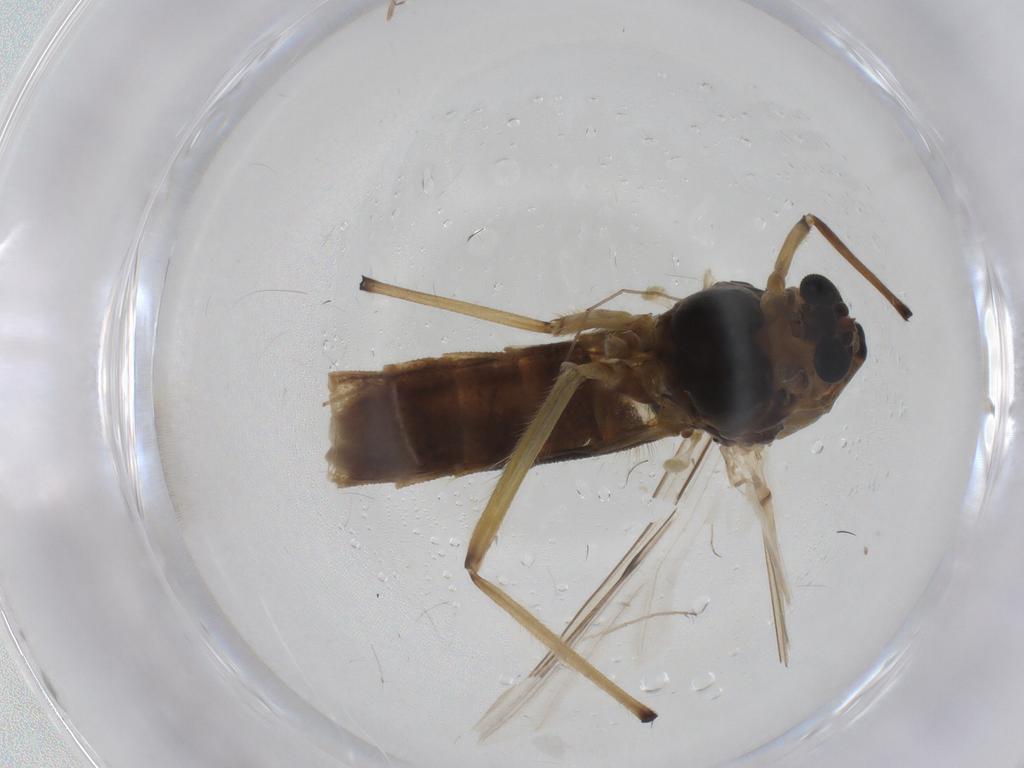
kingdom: Animalia
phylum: Arthropoda
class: Insecta
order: Diptera
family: Chironomidae
